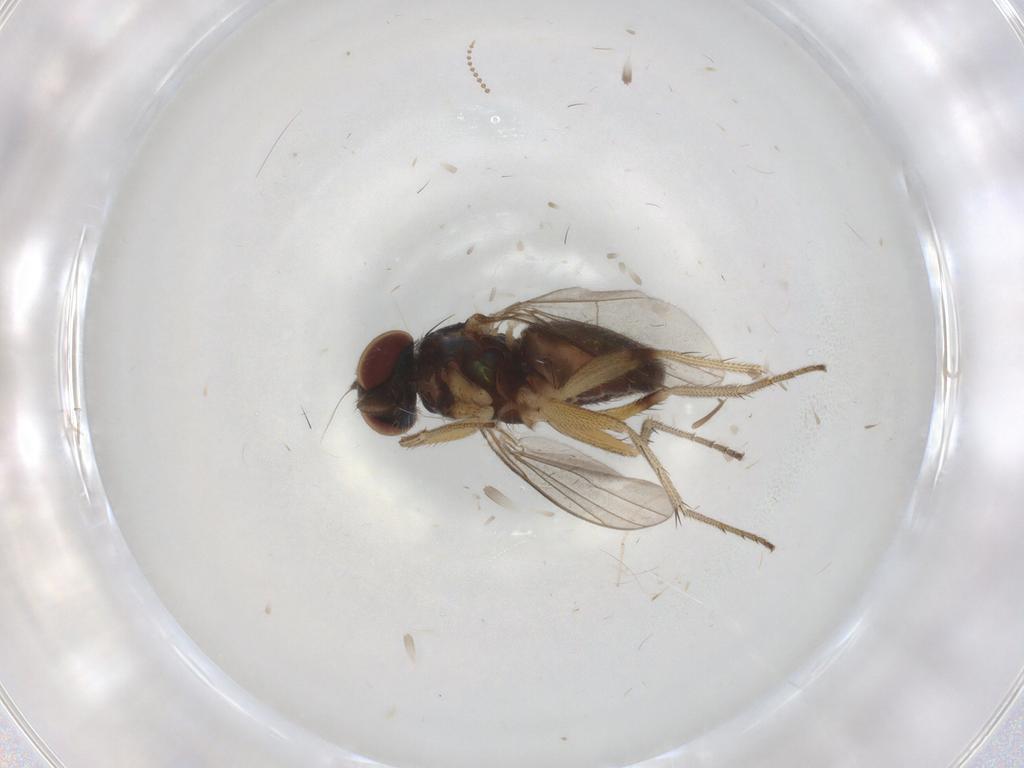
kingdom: Animalia
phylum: Arthropoda
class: Insecta
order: Diptera
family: Dolichopodidae
